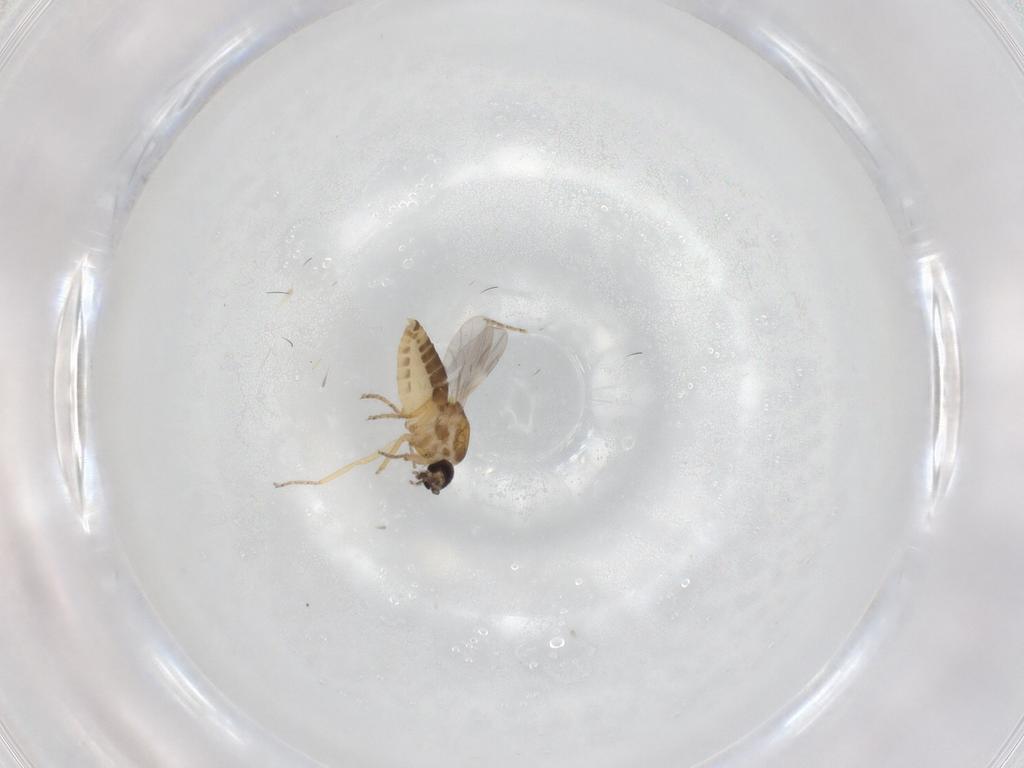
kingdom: Animalia
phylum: Arthropoda
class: Insecta
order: Diptera
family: Ceratopogonidae
